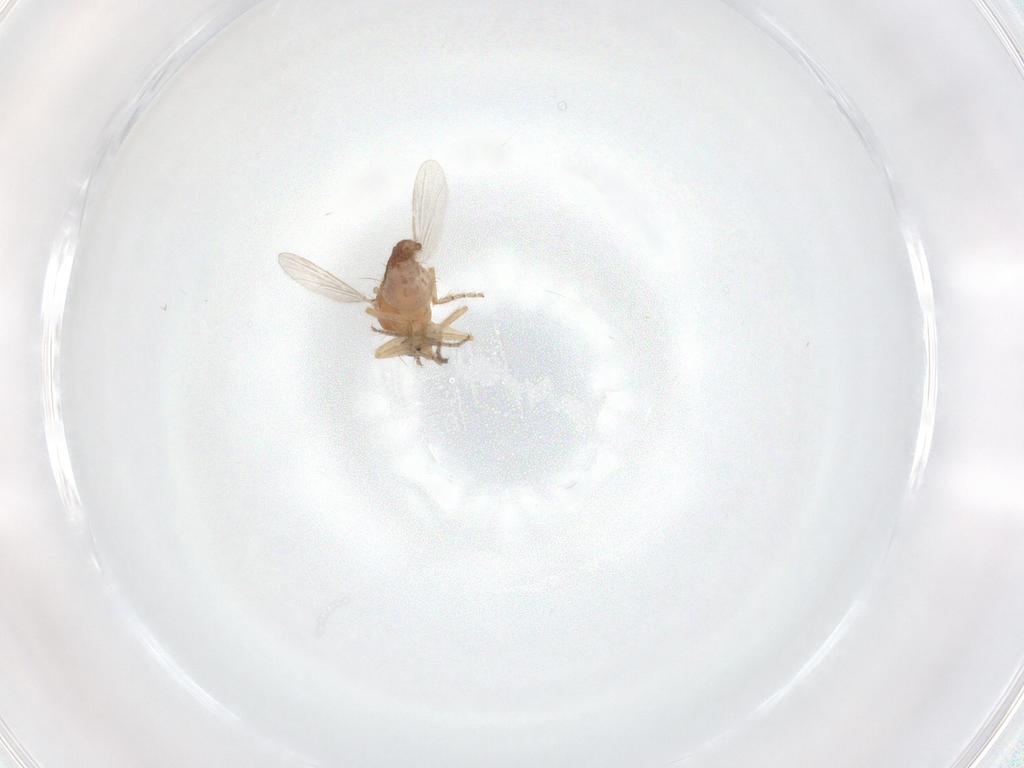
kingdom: Animalia
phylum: Arthropoda
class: Insecta
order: Diptera
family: Ceratopogonidae
